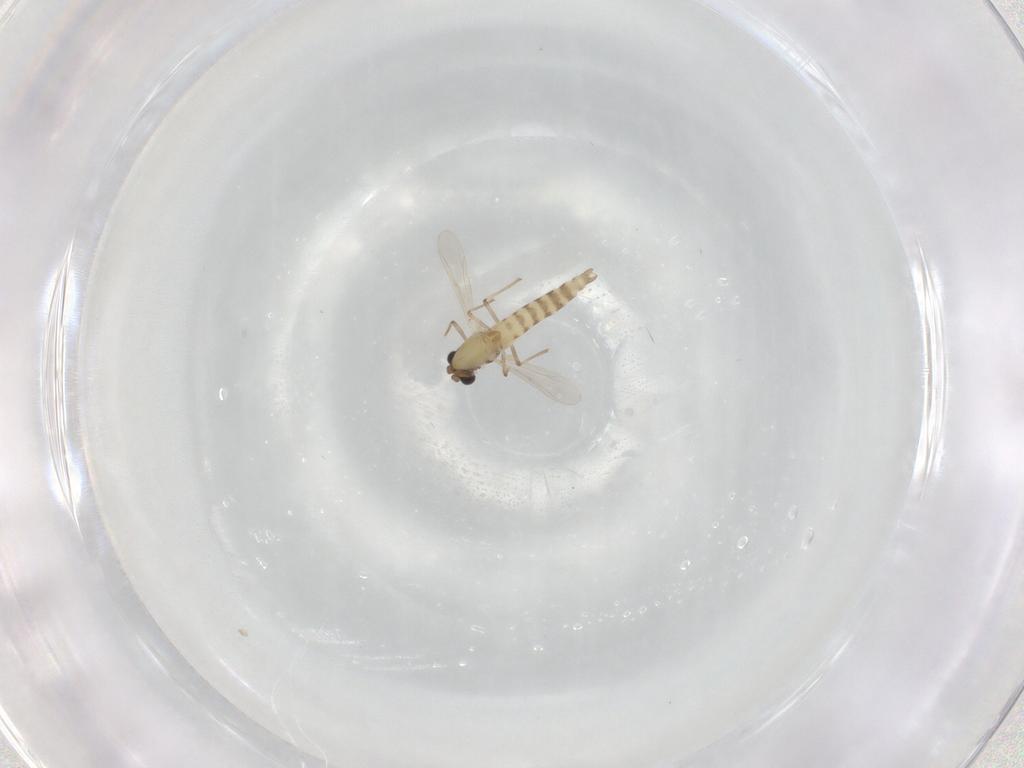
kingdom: Animalia
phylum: Arthropoda
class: Insecta
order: Diptera
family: Chironomidae
